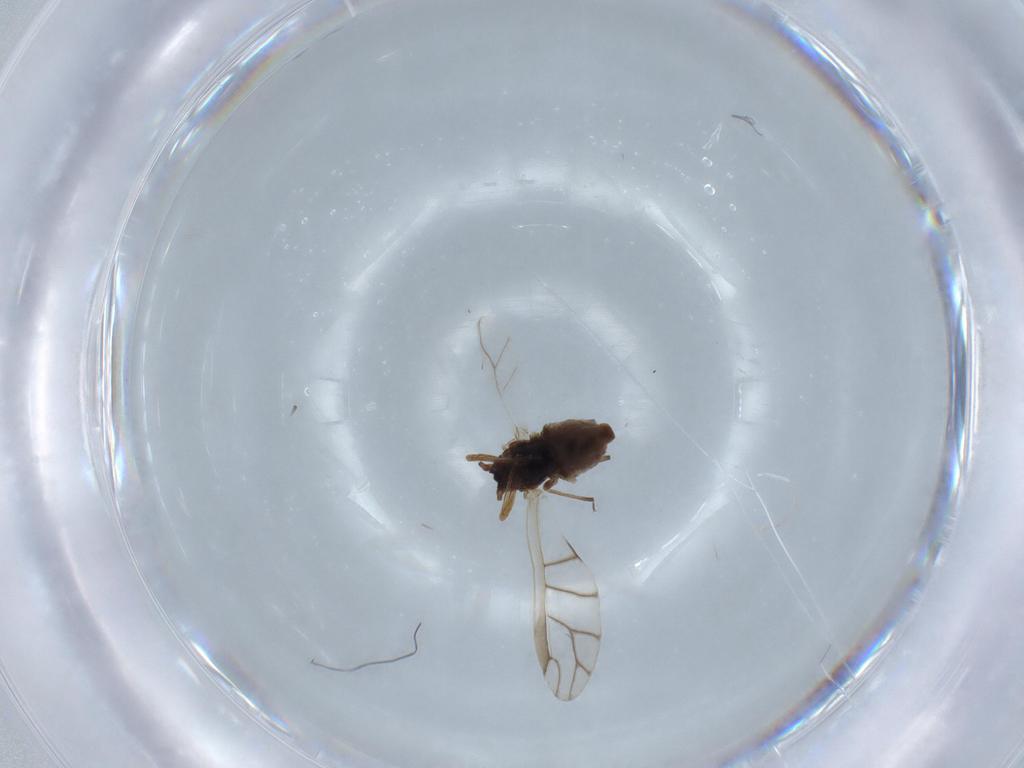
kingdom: Animalia
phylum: Arthropoda
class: Insecta
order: Hemiptera
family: Aphididae
